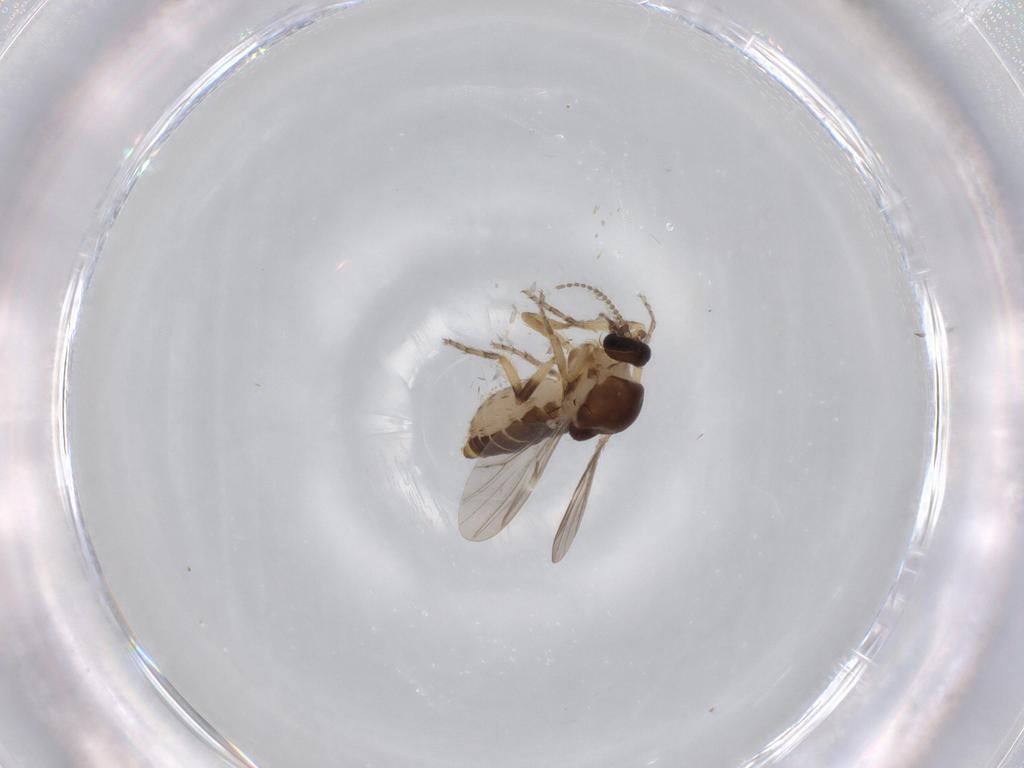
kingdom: Animalia
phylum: Arthropoda
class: Insecta
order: Diptera
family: Ceratopogonidae
